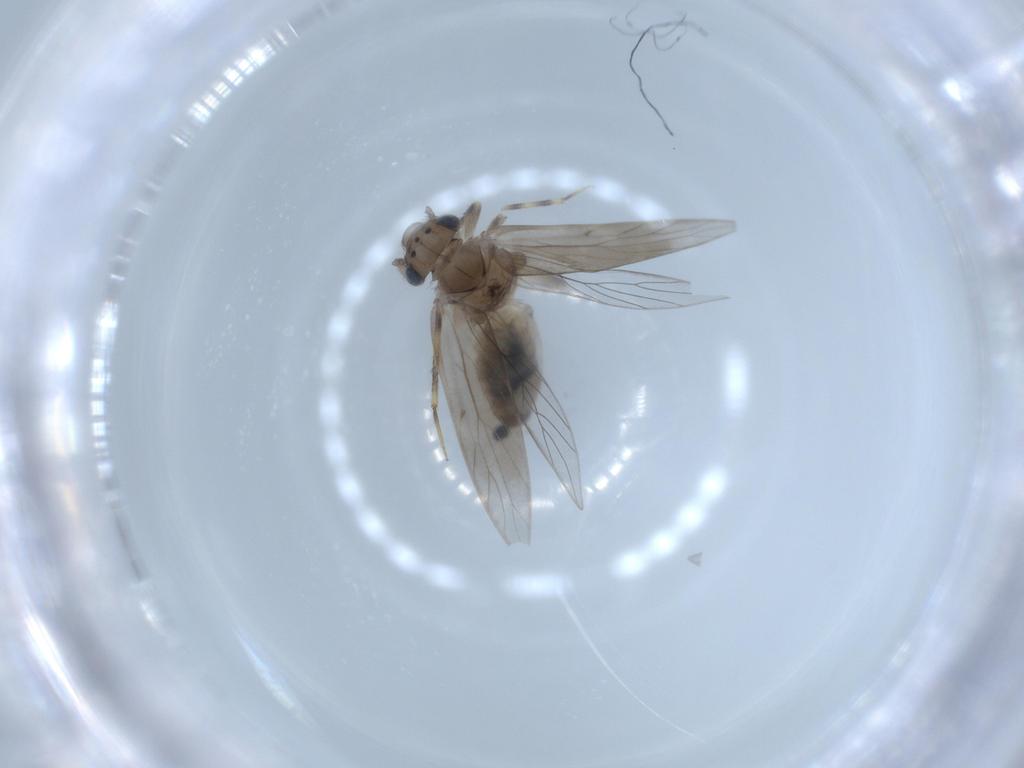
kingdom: Animalia
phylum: Arthropoda
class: Insecta
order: Psocodea
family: Lepidopsocidae
